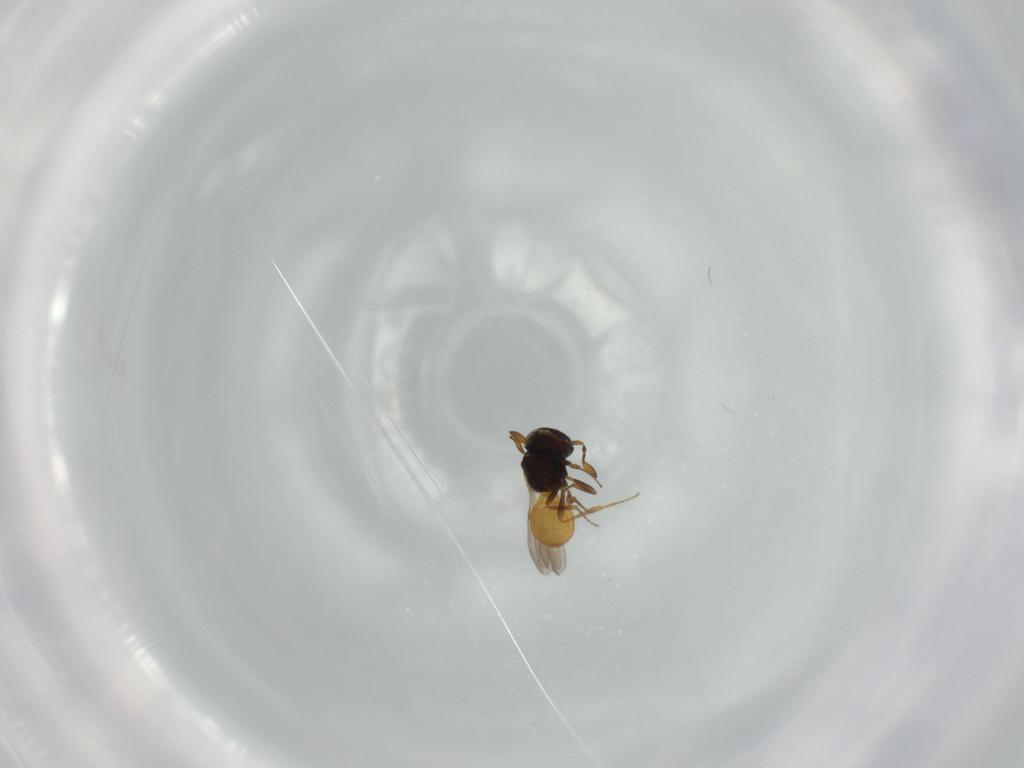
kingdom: Animalia
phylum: Arthropoda
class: Insecta
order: Hymenoptera
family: Scelionidae
